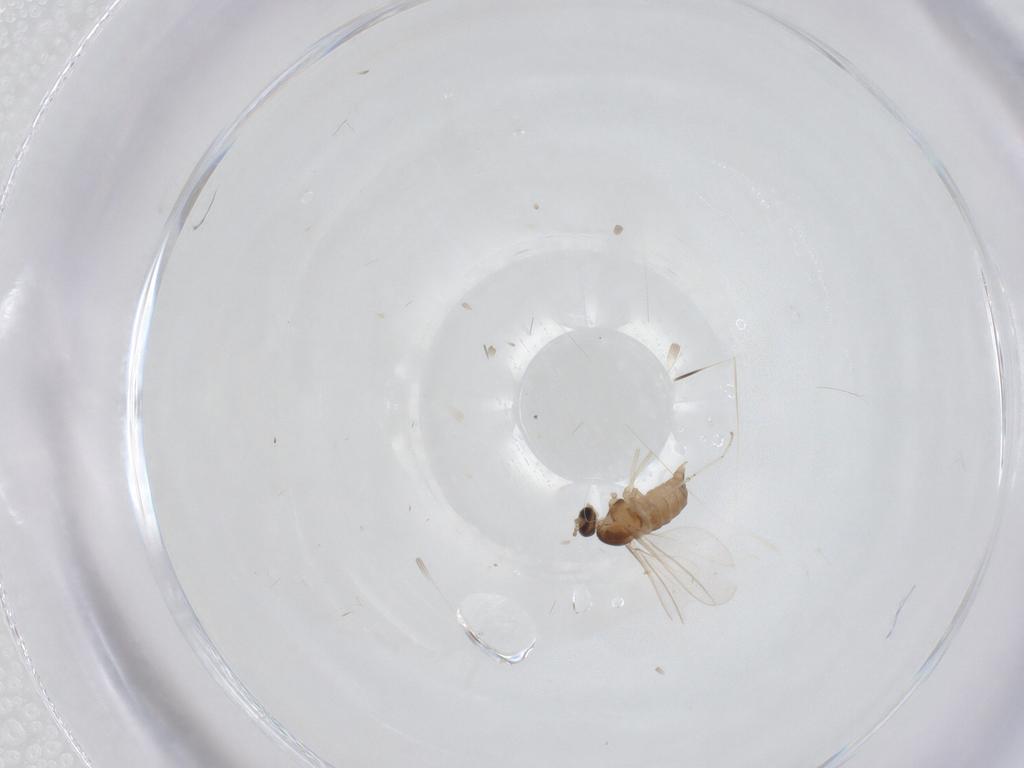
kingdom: Animalia
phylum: Arthropoda
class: Insecta
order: Diptera
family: Cecidomyiidae
